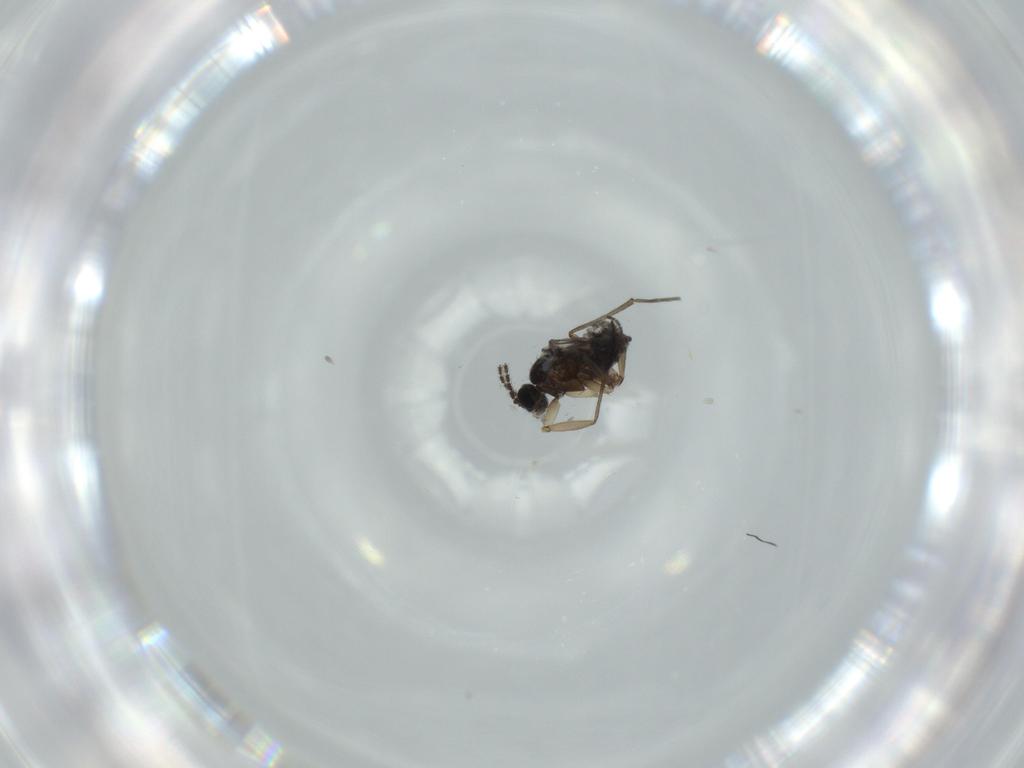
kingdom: Animalia
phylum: Arthropoda
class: Insecta
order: Diptera
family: Sciaridae
